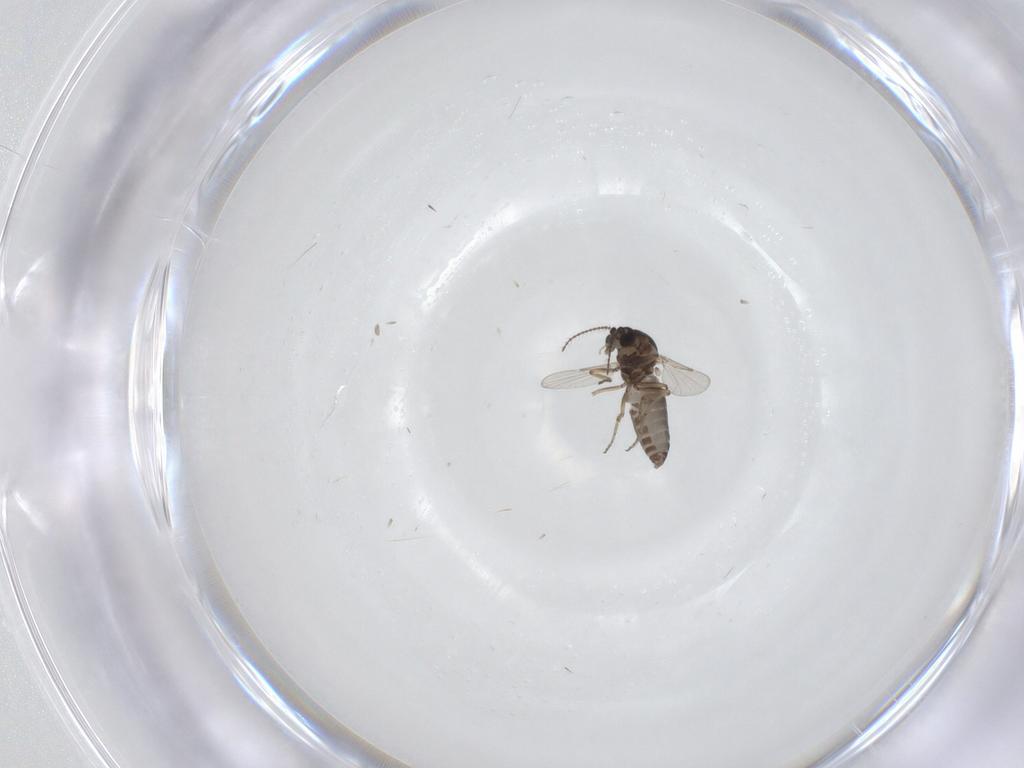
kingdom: Animalia
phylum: Arthropoda
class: Insecta
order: Diptera
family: Ceratopogonidae
